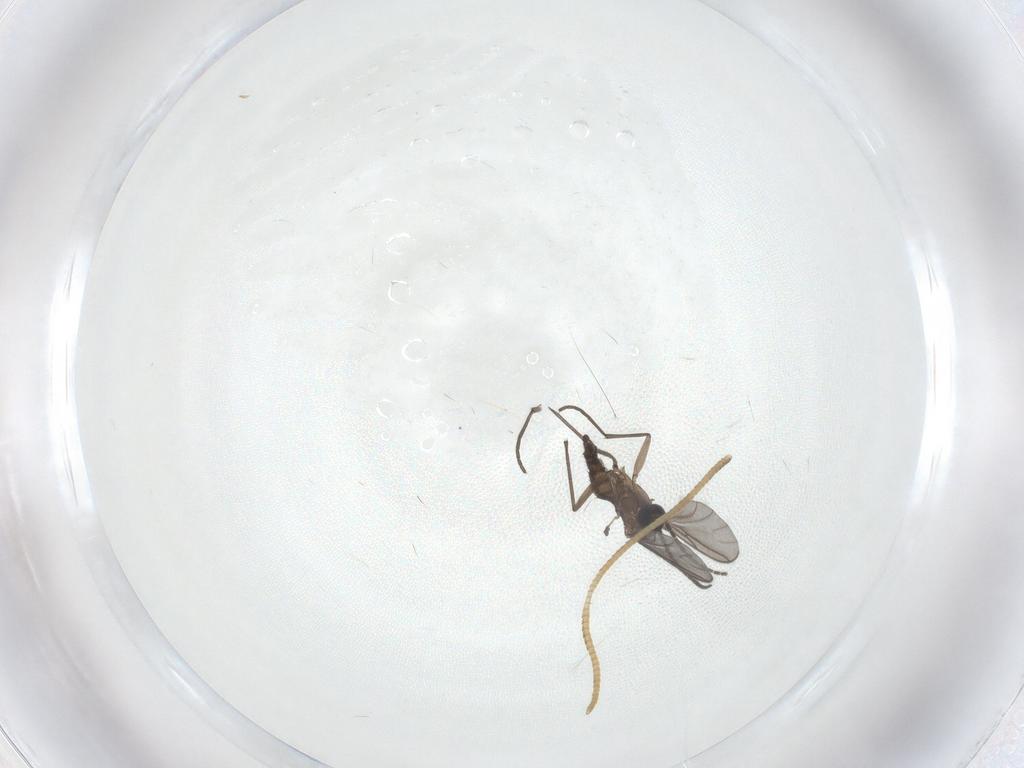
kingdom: Animalia
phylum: Arthropoda
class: Insecta
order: Diptera
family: Sciaridae
